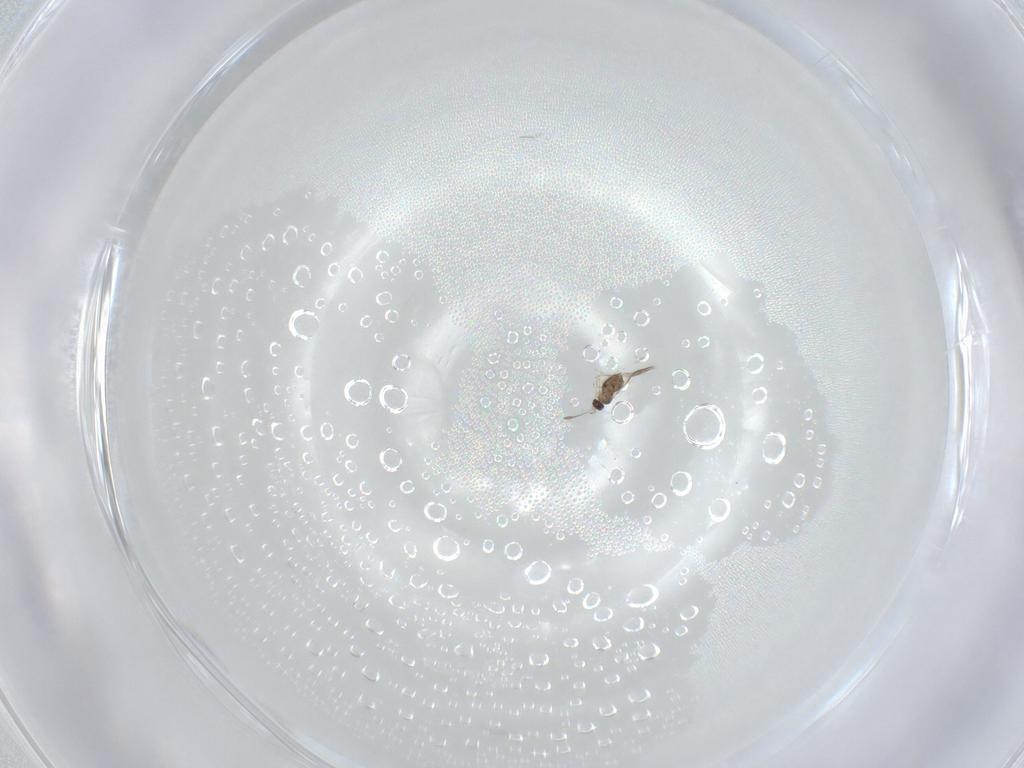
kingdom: Animalia
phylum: Arthropoda
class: Insecta
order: Hymenoptera
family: Mymaridae
